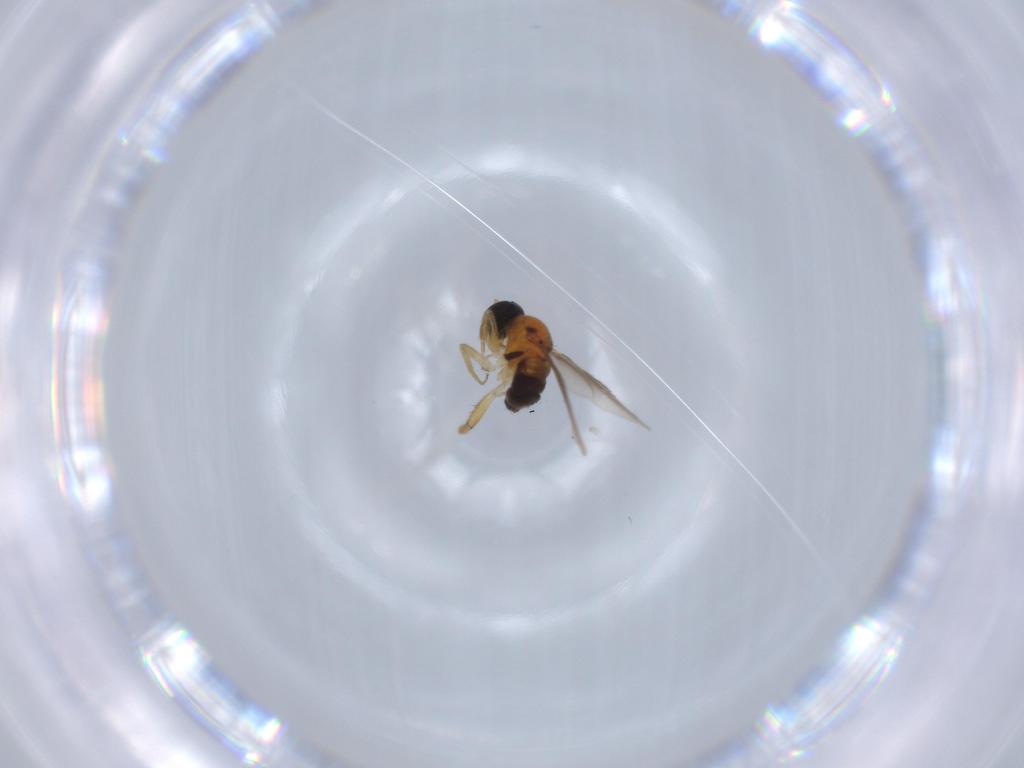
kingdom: Animalia
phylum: Arthropoda
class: Insecta
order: Diptera
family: Hybotidae
